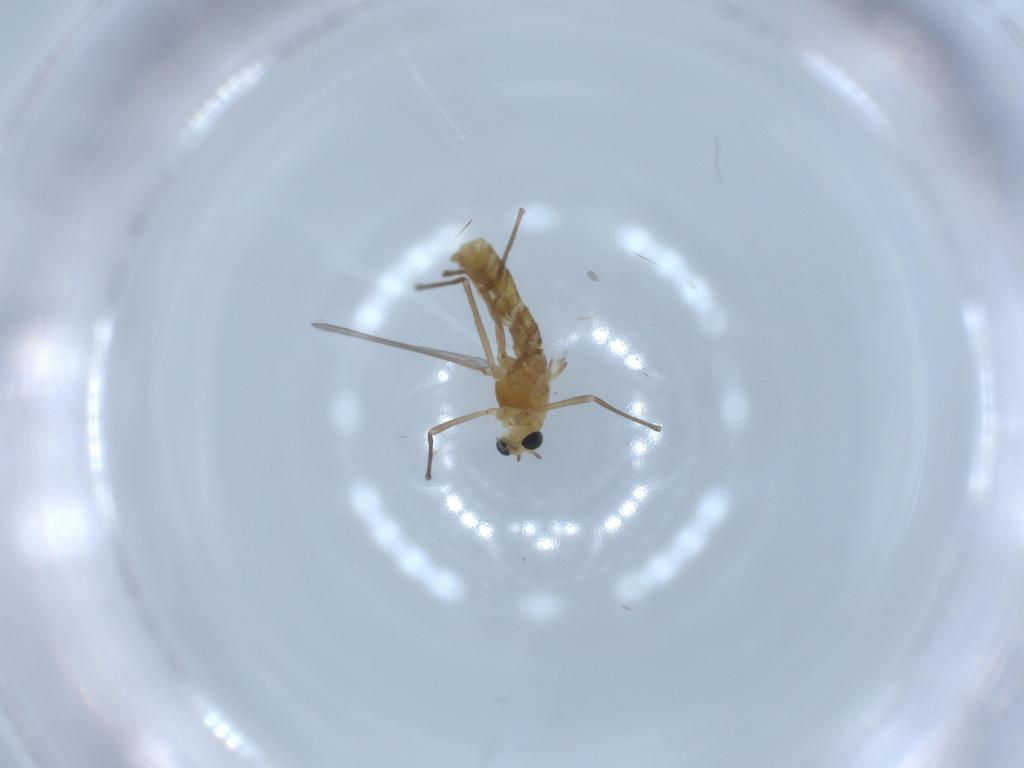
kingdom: Animalia
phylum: Arthropoda
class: Insecta
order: Diptera
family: Chironomidae
